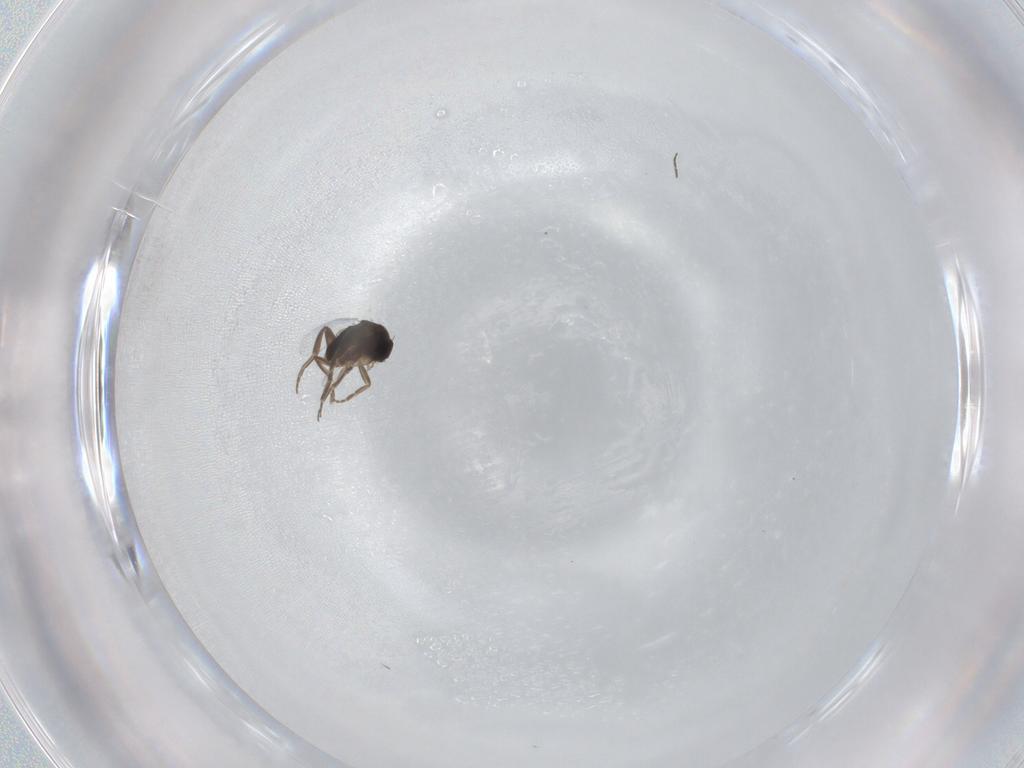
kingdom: Animalia
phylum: Arthropoda
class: Insecta
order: Diptera
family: Phoridae
